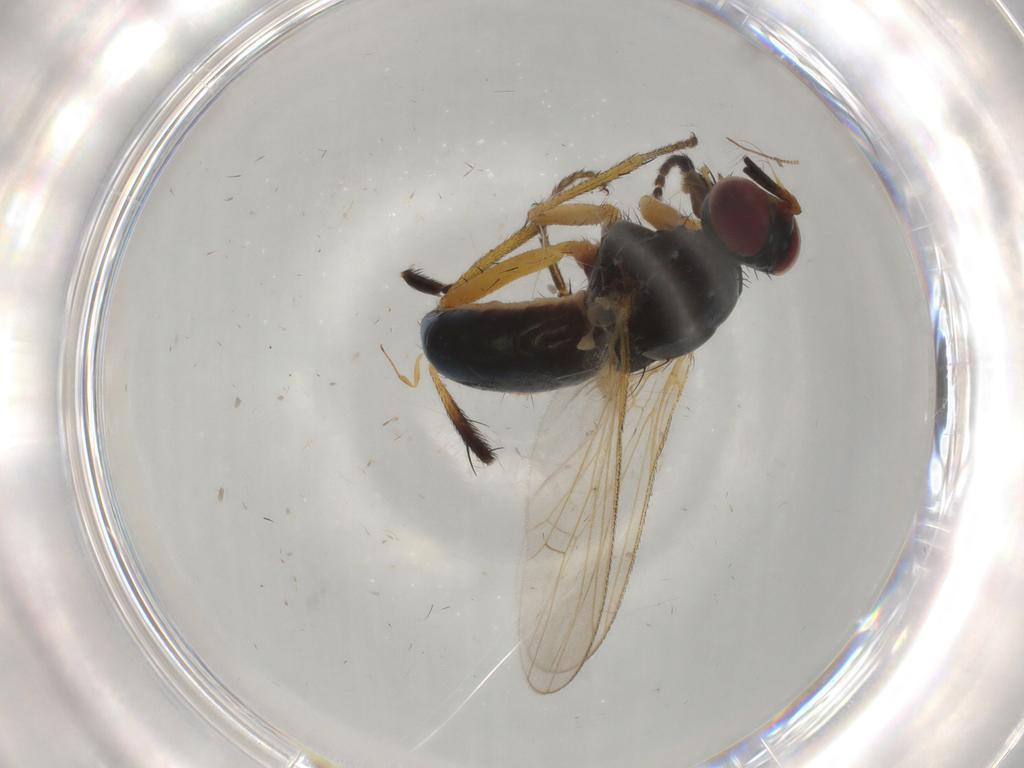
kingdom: Animalia
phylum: Arthropoda
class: Insecta
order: Diptera
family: Muscidae
